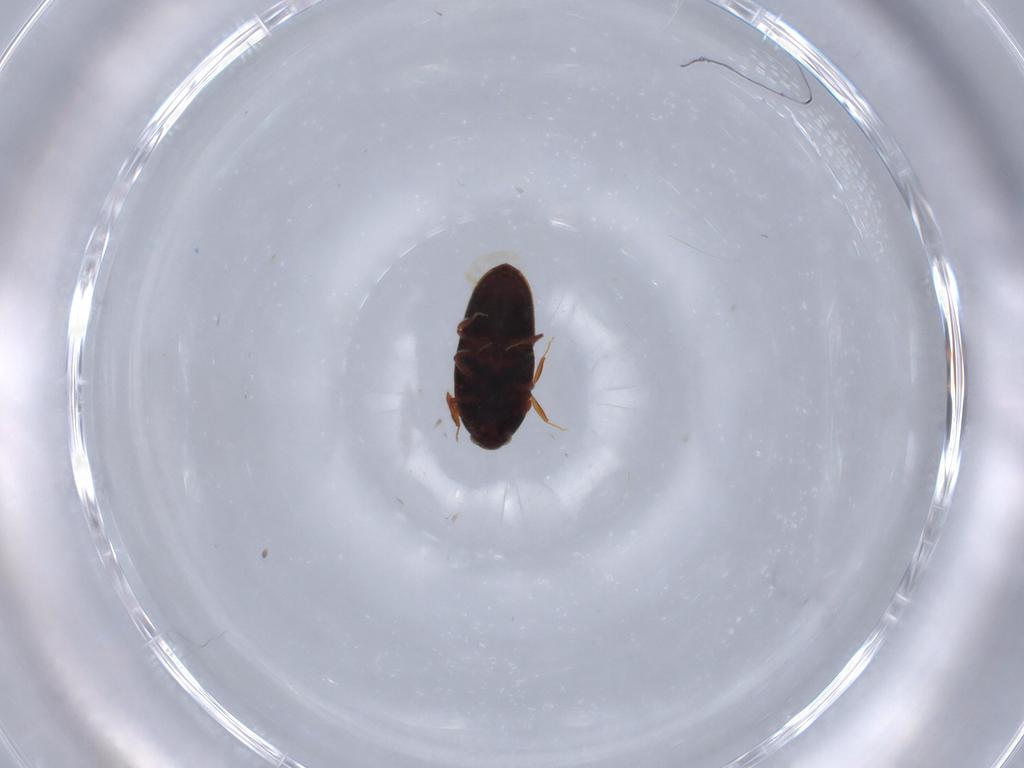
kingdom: Animalia
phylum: Arthropoda
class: Insecta
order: Coleoptera
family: Throscidae
